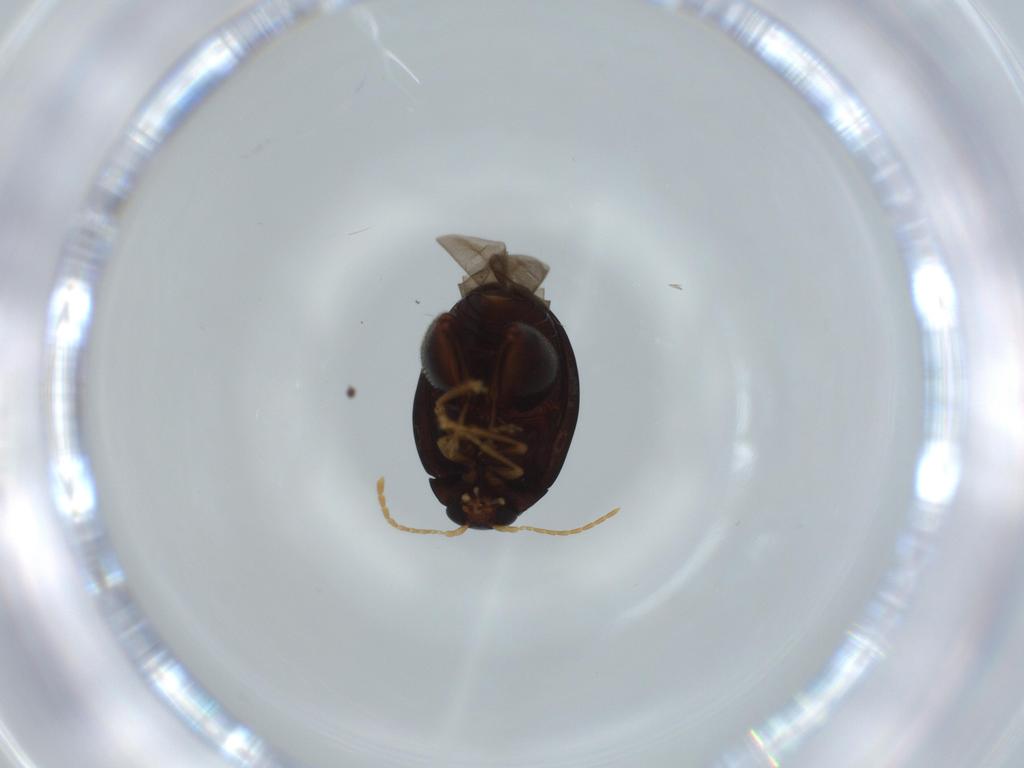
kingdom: Animalia
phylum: Arthropoda
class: Insecta
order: Coleoptera
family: Chrysomelidae
